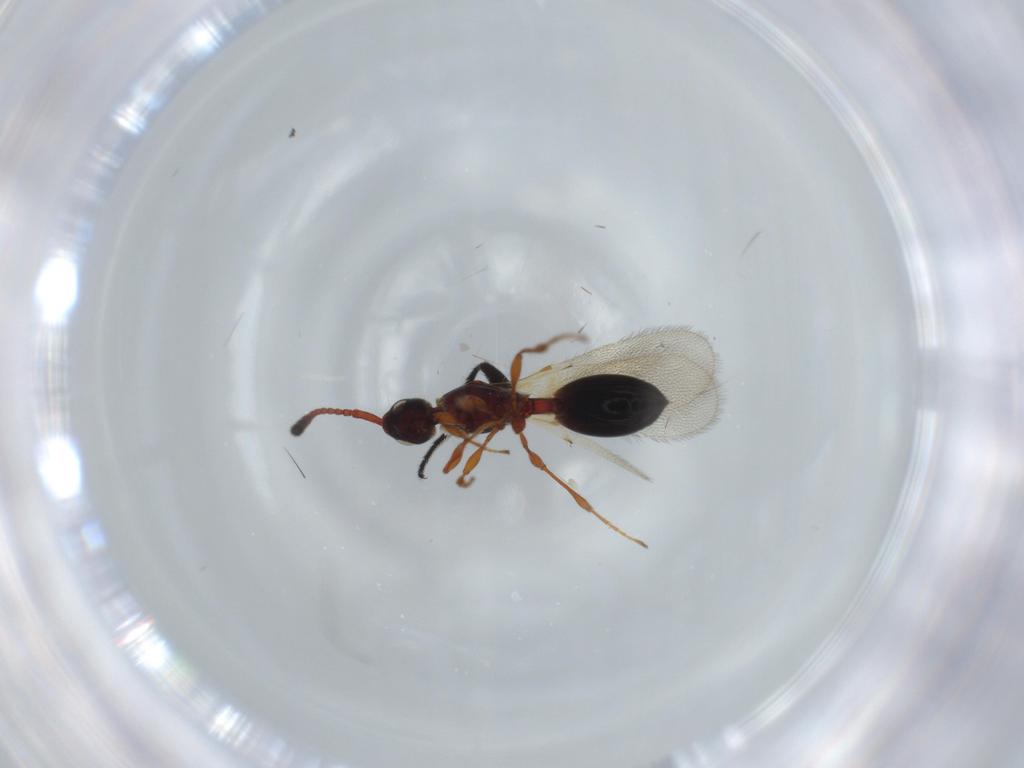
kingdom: Animalia
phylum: Arthropoda
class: Insecta
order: Hymenoptera
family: Diapriidae
